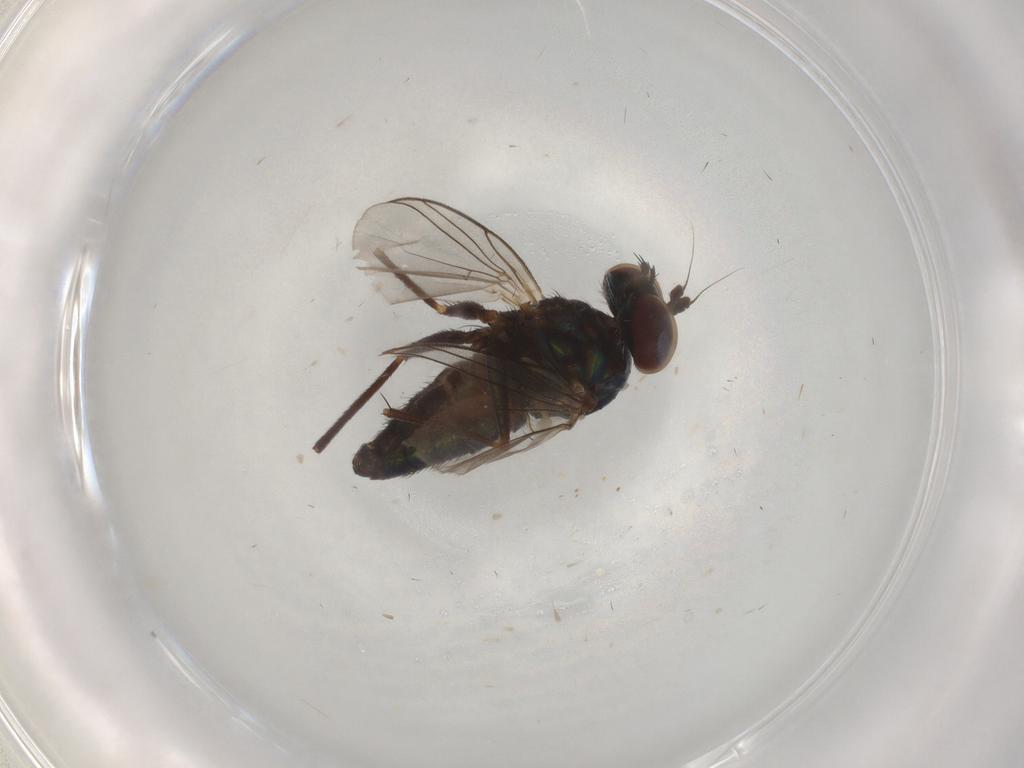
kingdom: Animalia
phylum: Arthropoda
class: Insecta
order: Diptera
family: Dolichopodidae
